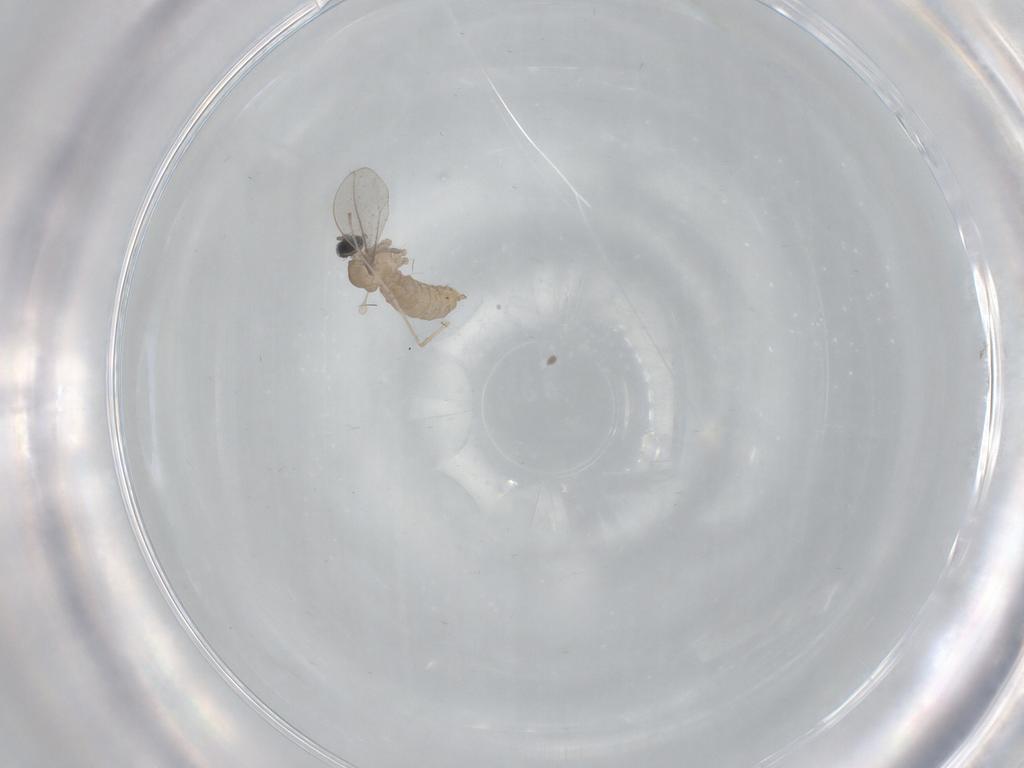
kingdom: Animalia
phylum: Arthropoda
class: Insecta
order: Diptera
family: Cecidomyiidae
